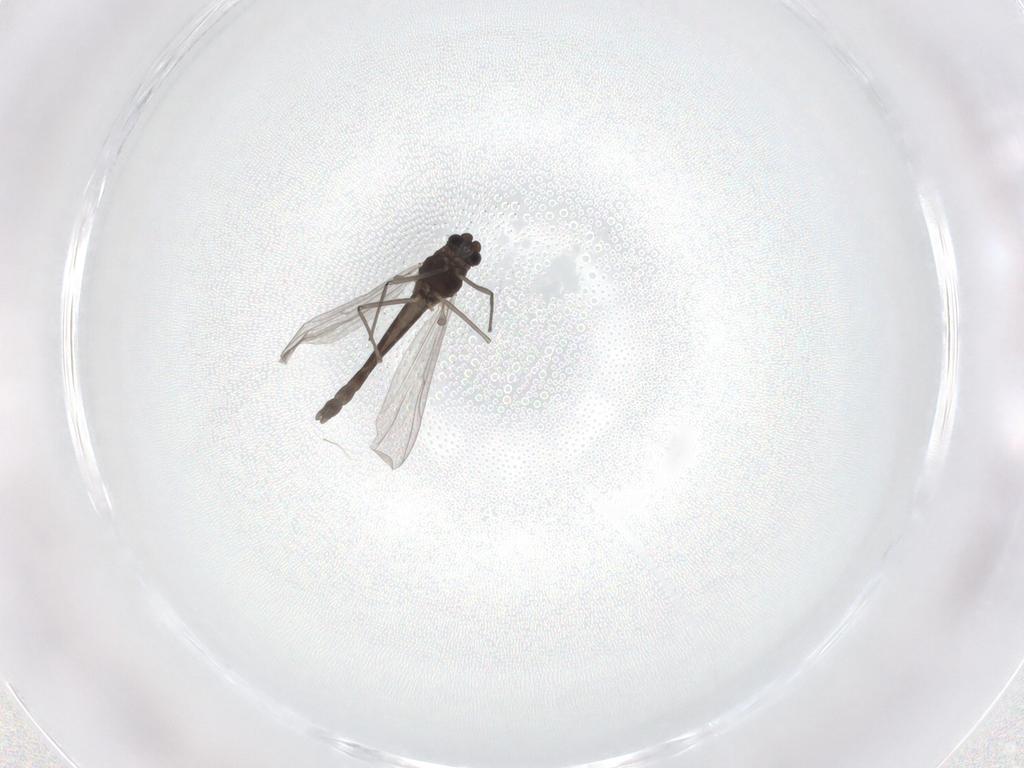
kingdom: Animalia
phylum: Arthropoda
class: Insecta
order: Diptera
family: Chironomidae
